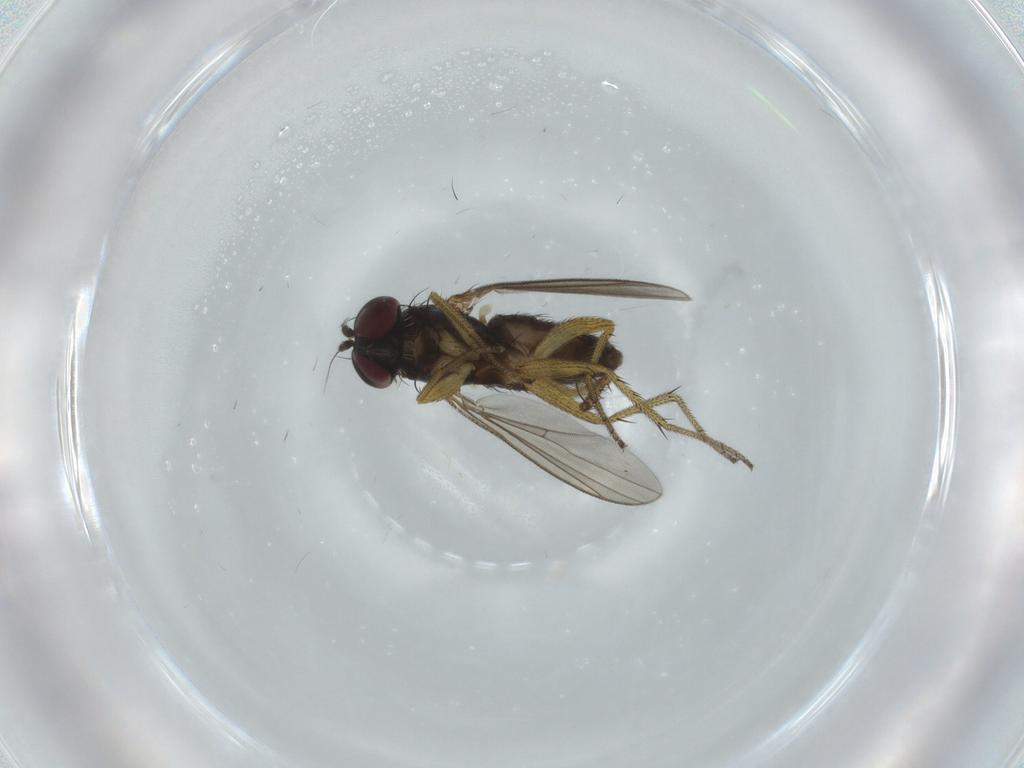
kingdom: Animalia
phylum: Arthropoda
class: Insecta
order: Diptera
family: Dolichopodidae
